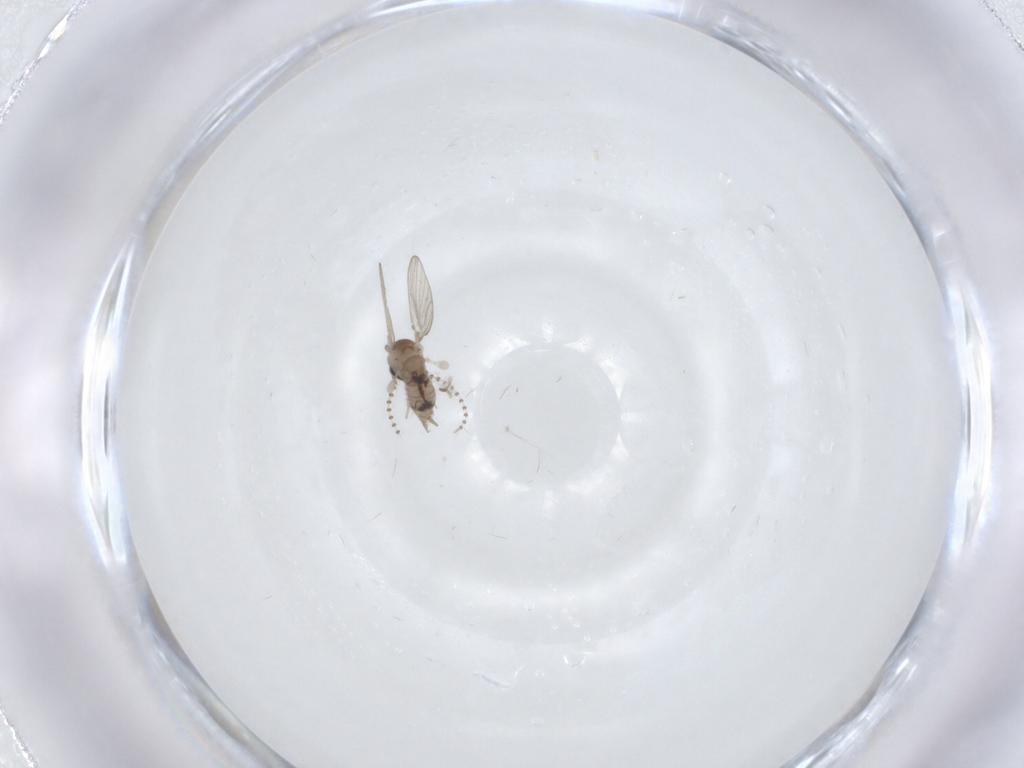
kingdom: Animalia
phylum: Arthropoda
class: Insecta
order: Diptera
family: Psychodidae
